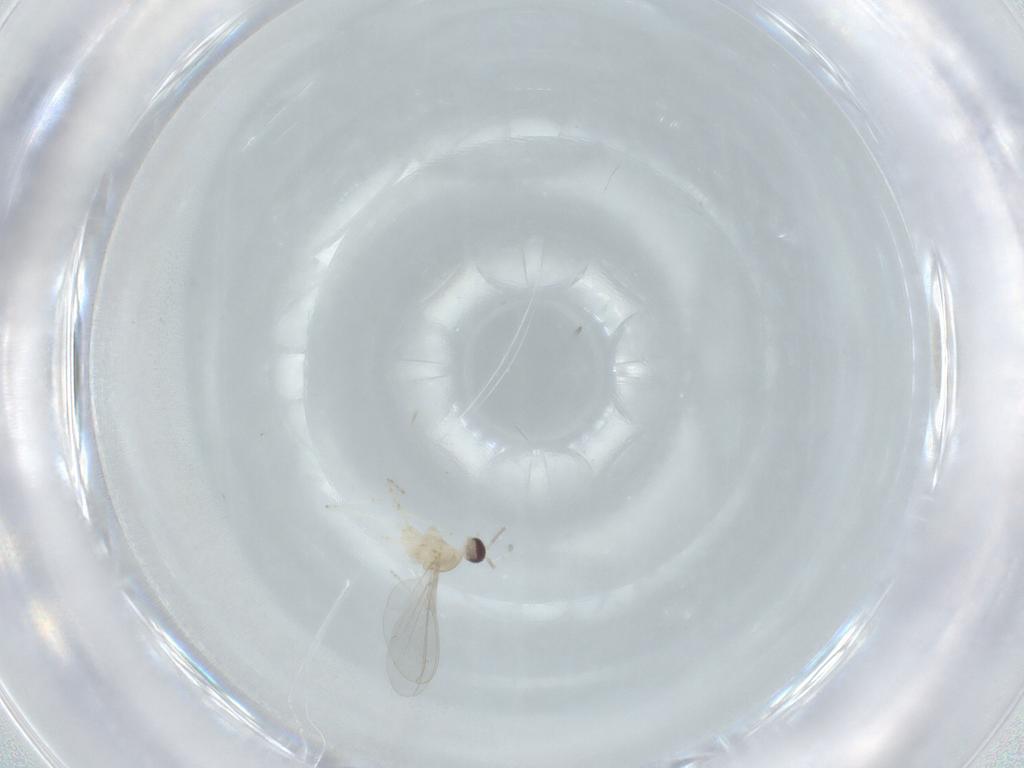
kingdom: Animalia
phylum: Arthropoda
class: Insecta
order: Diptera
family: Cecidomyiidae
